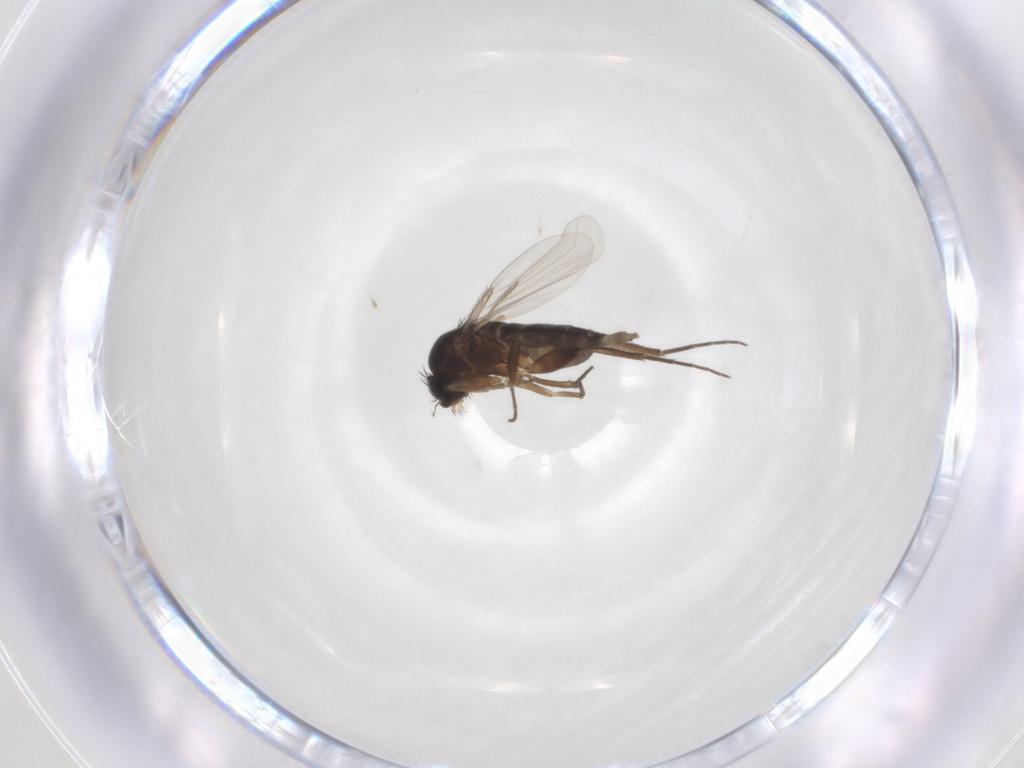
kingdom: Animalia
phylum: Arthropoda
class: Insecta
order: Diptera
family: Phoridae
